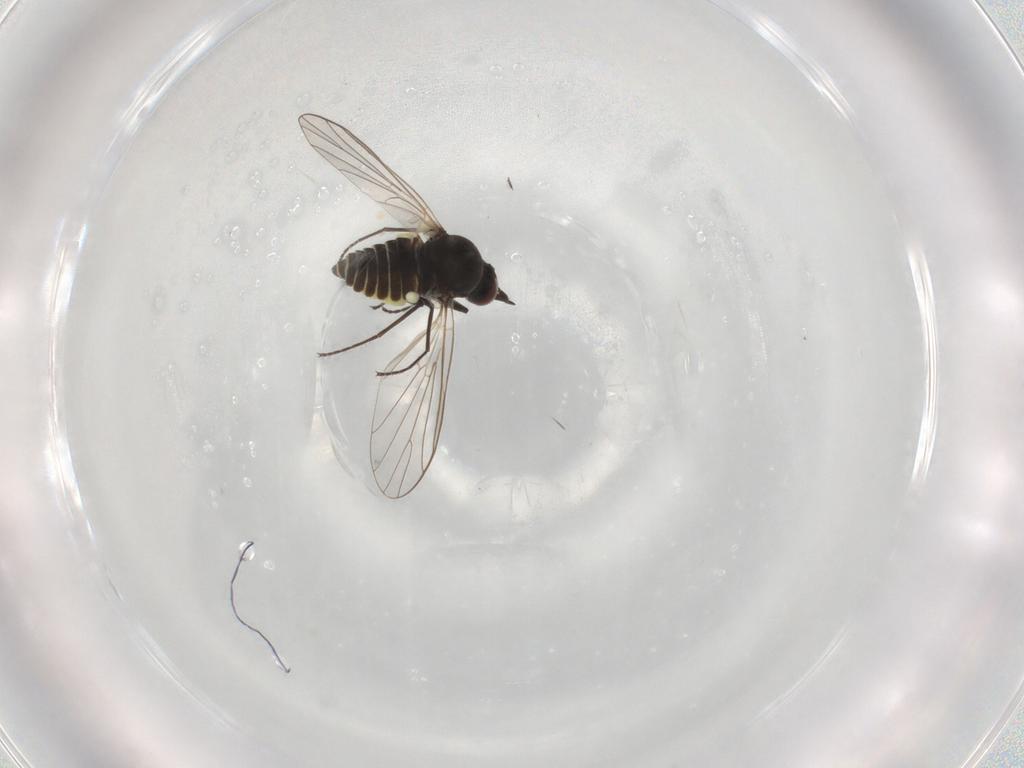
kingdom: Animalia
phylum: Arthropoda
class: Insecta
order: Diptera
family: Bombyliidae
